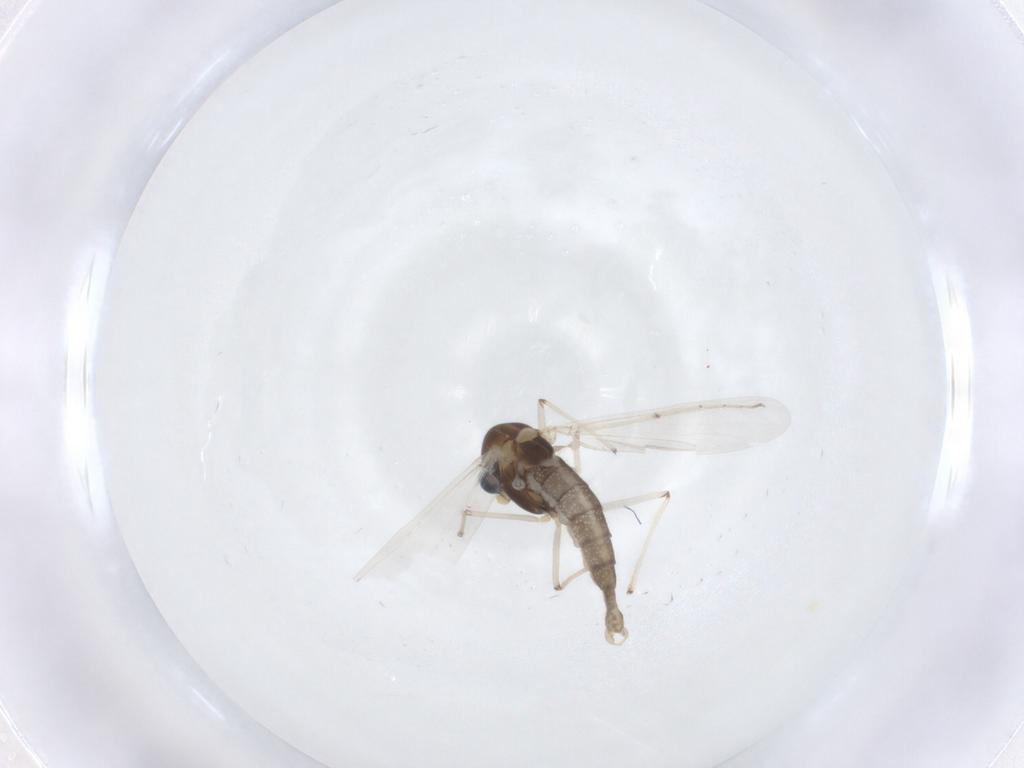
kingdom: Animalia
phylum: Arthropoda
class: Insecta
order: Diptera
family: Chironomidae
